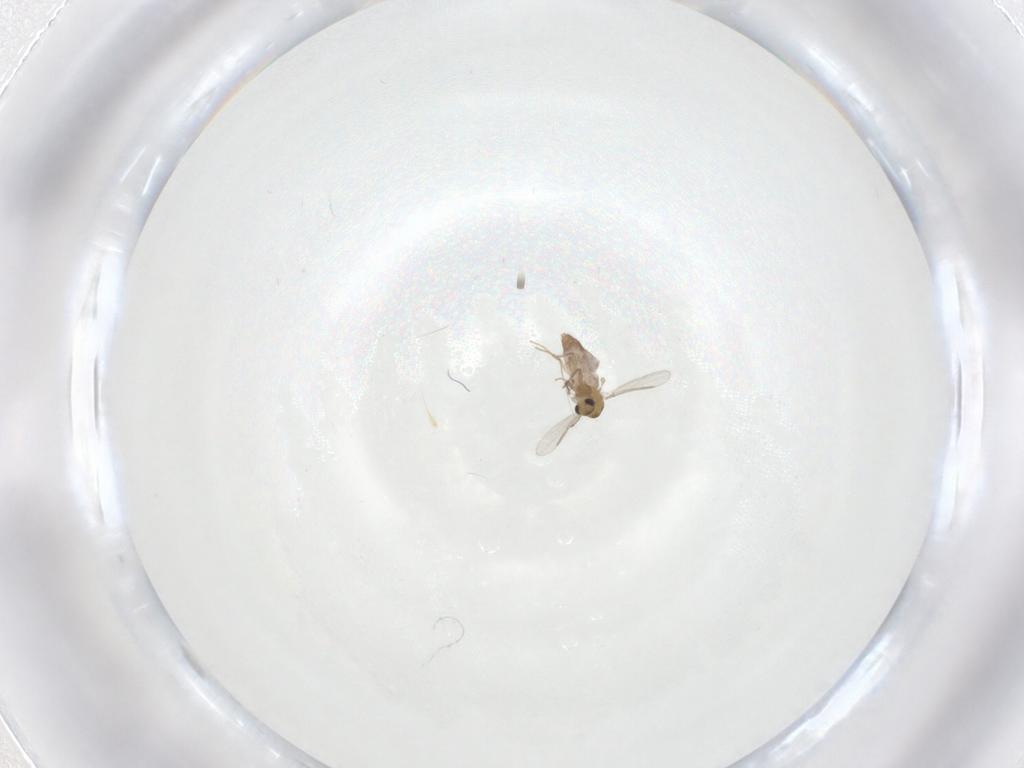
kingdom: Animalia
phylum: Arthropoda
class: Insecta
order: Diptera
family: Chironomidae
